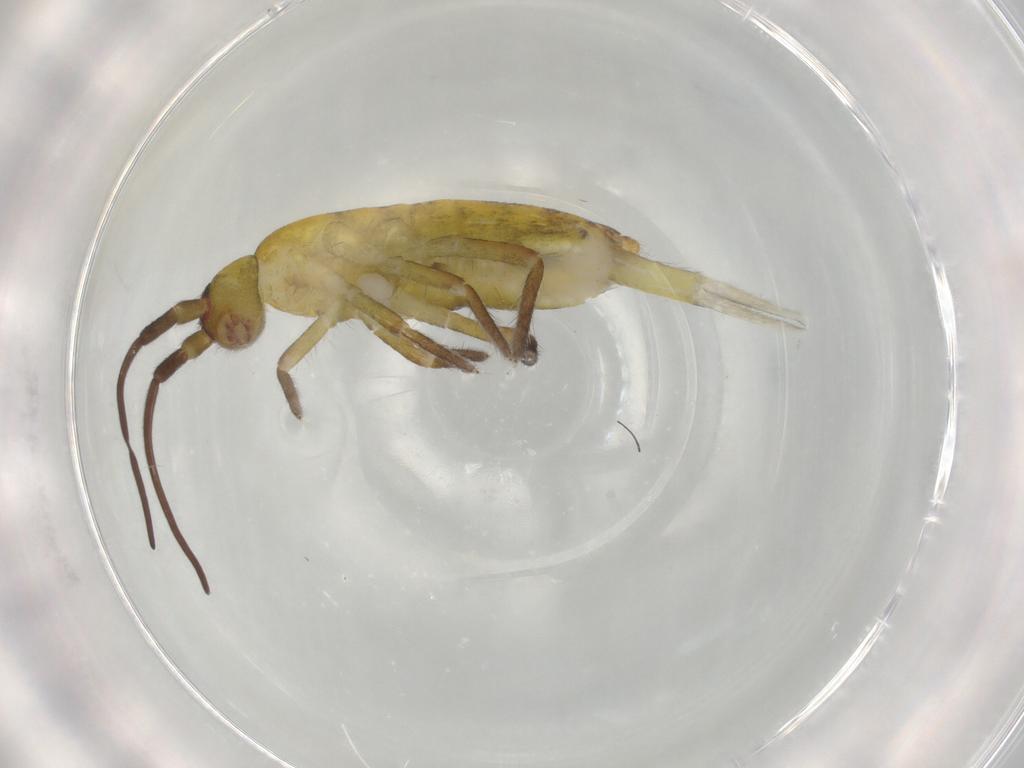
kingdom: Animalia
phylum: Arthropoda
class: Collembola
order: Entomobryomorpha
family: Tomoceridae
